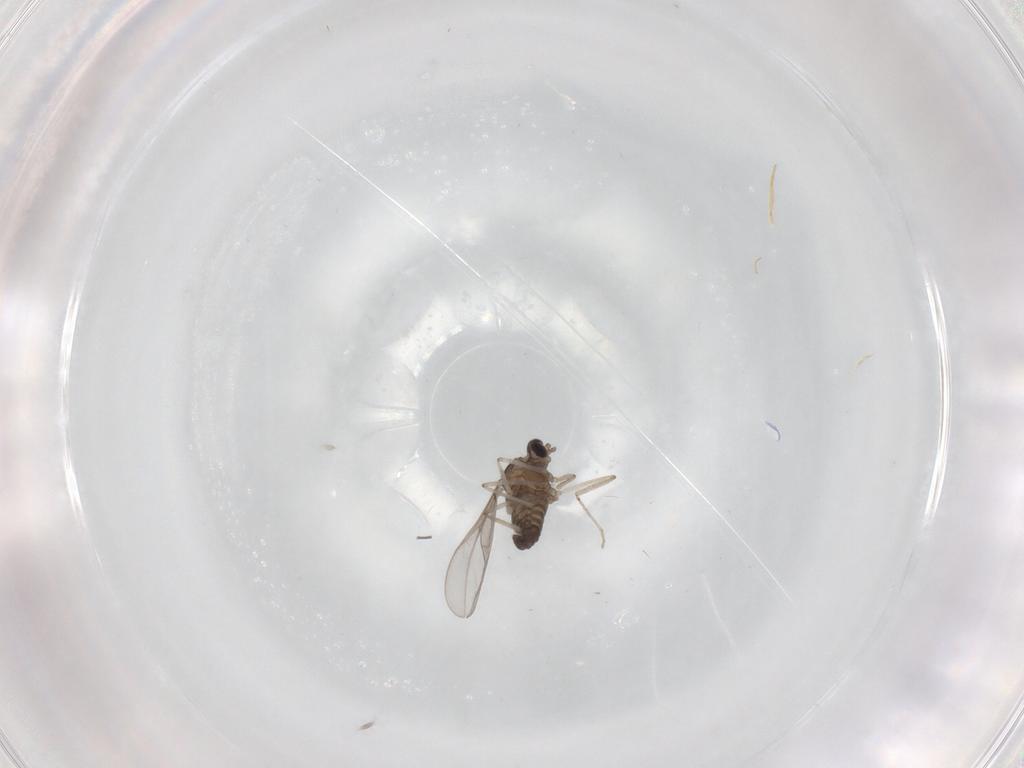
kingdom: Animalia
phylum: Arthropoda
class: Insecta
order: Diptera
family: Cecidomyiidae
